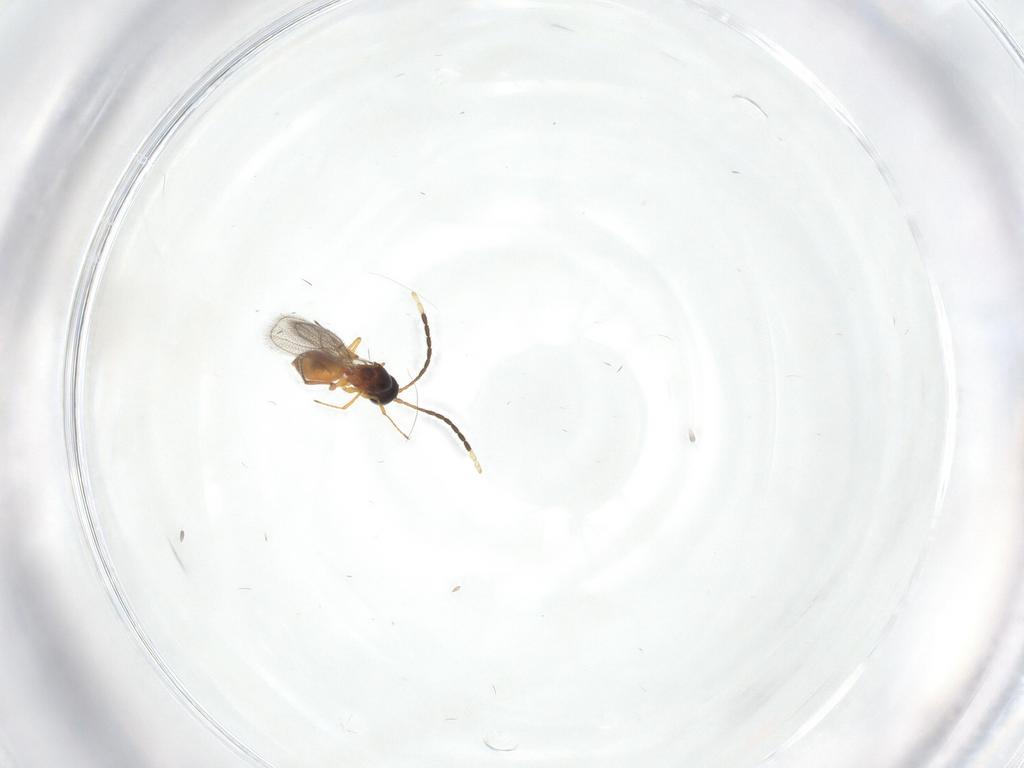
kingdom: Animalia
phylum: Arthropoda
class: Insecta
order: Hymenoptera
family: Figitidae
